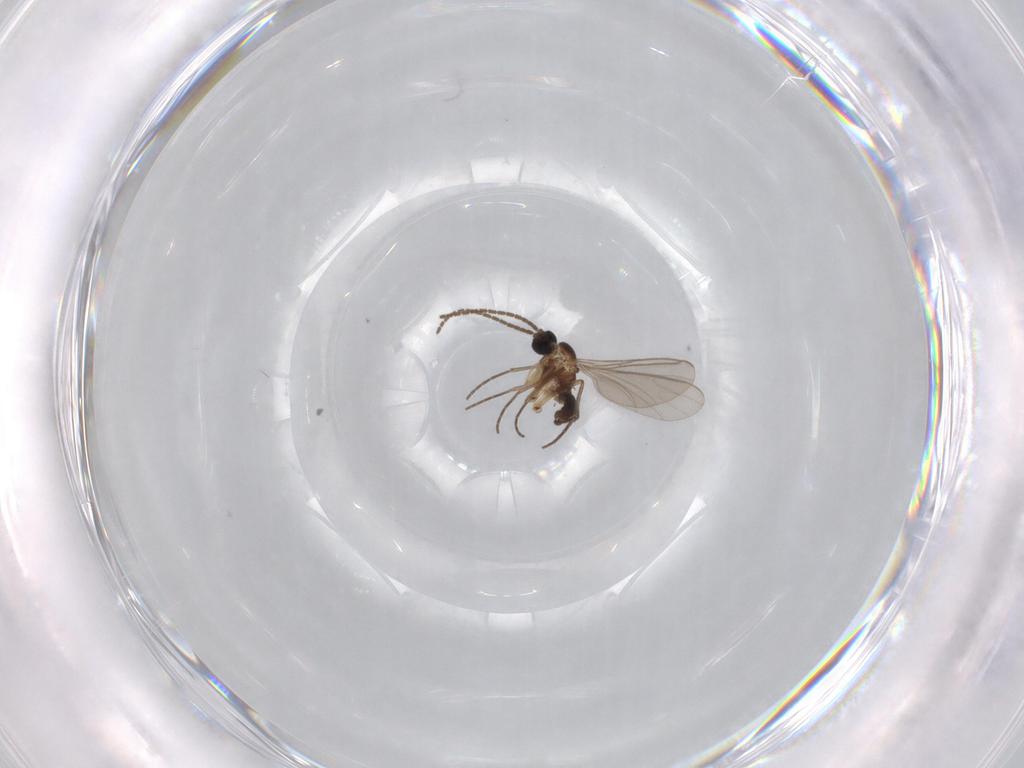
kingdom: Animalia
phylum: Arthropoda
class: Insecta
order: Diptera
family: Sciaridae
